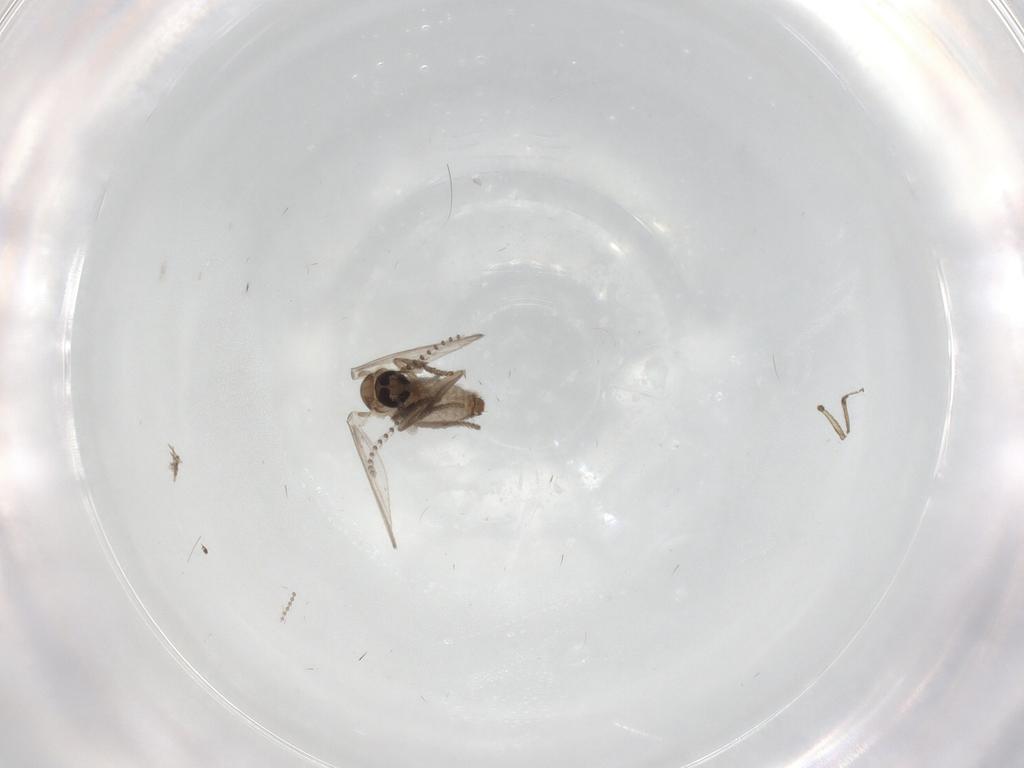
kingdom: Animalia
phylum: Arthropoda
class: Insecta
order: Diptera
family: Psychodidae
